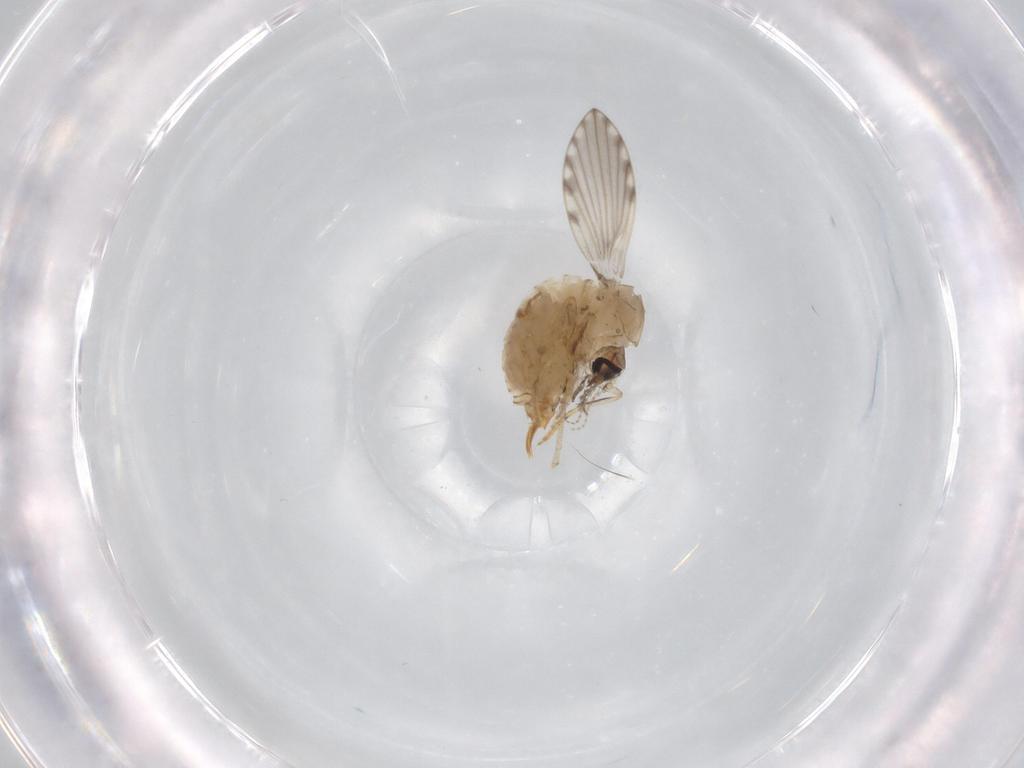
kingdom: Animalia
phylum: Arthropoda
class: Insecta
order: Diptera
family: Psychodidae
